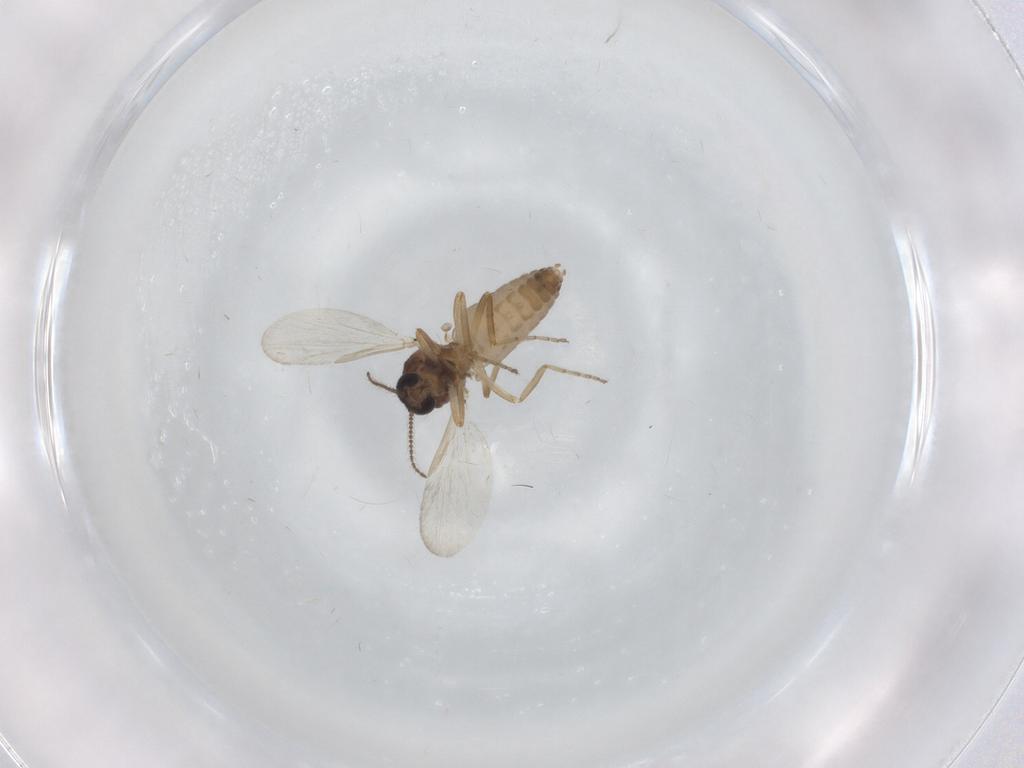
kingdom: Animalia
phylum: Arthropoda
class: Insecta
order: Diptera
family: Ceratopogonidae
